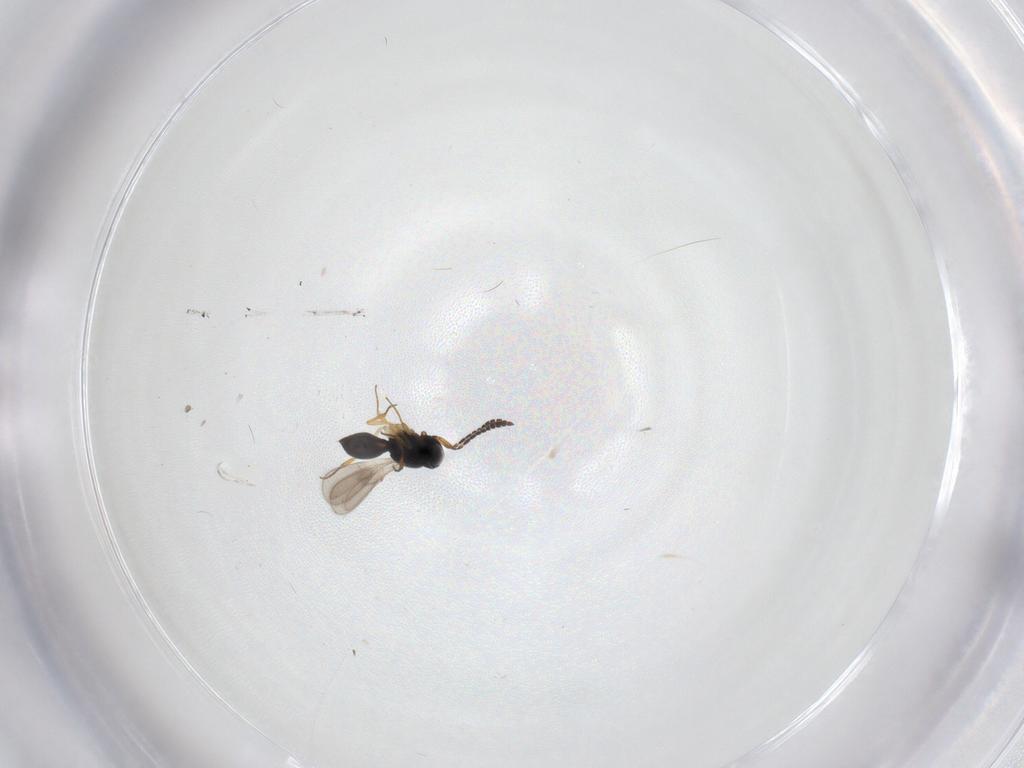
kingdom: Animalia
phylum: Arthropoda
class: Insecta
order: Hymenoptera
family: Scelionidae
